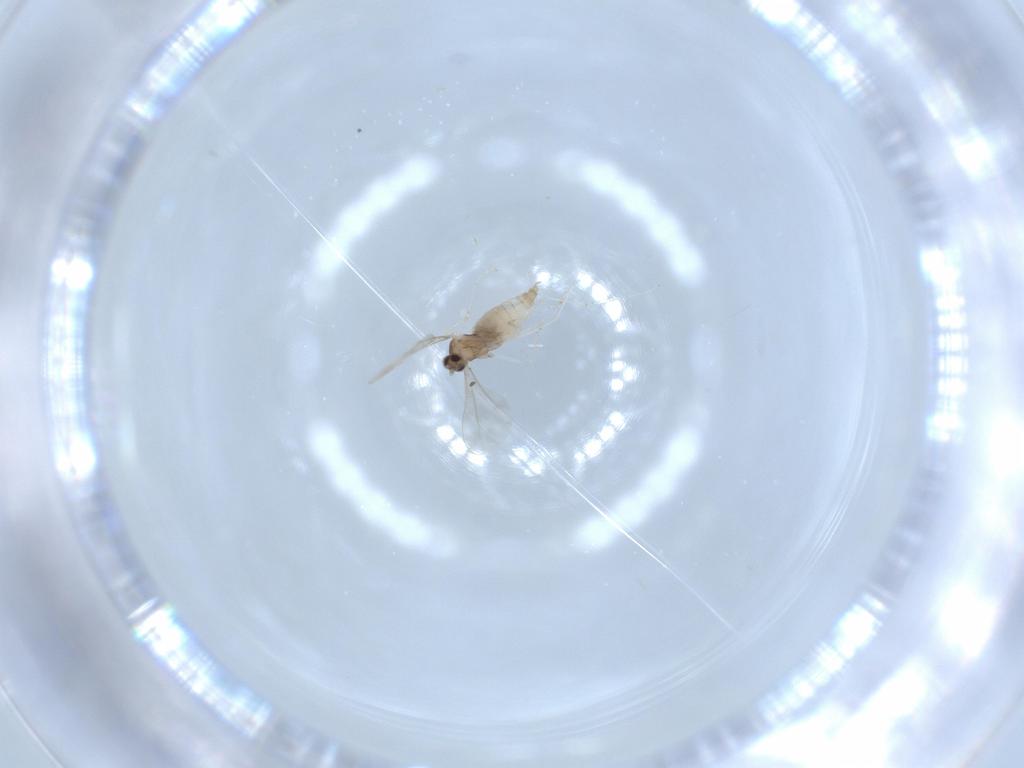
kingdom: Animalia
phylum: Arthropoda
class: Insecta
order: Diptera
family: Cecidomyiidae
